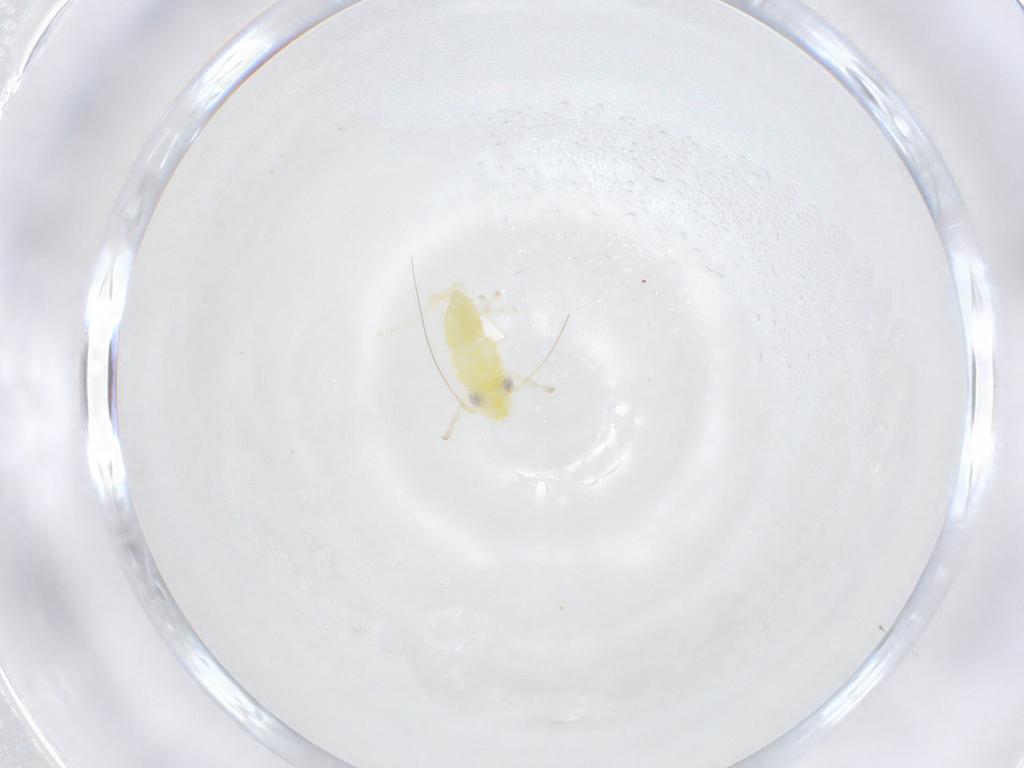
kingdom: Animalia
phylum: Arthropoda
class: Insecta
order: Hemiptera
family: Cicadellidae
